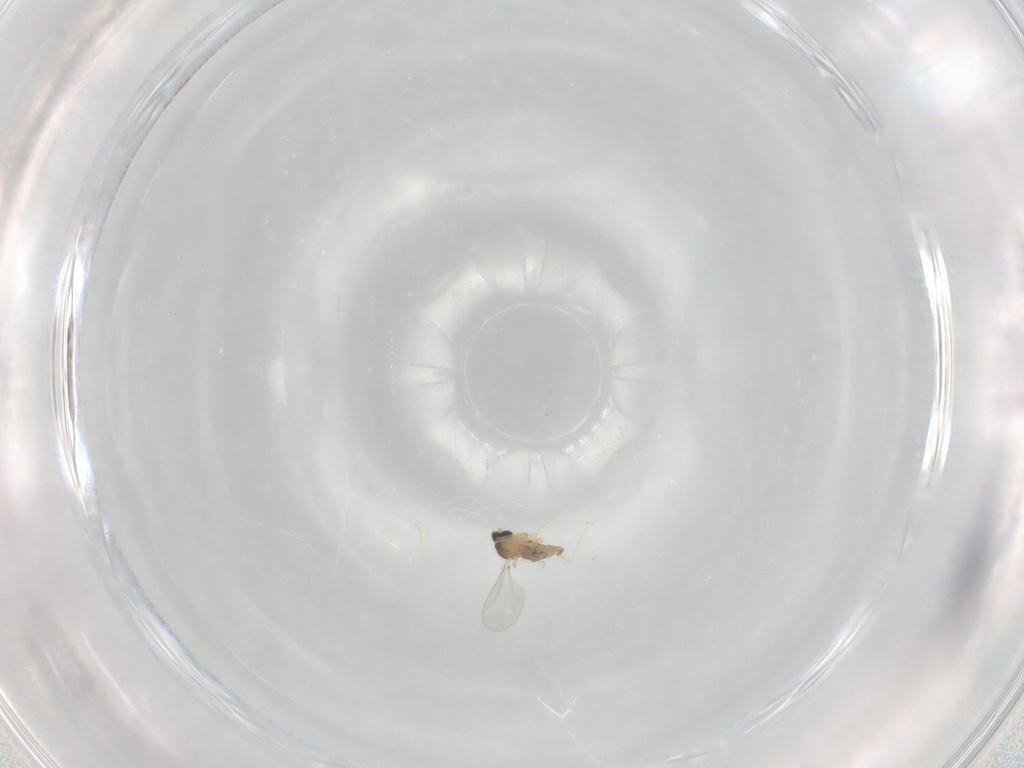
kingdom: Animalia
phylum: Arthropoda
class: Insecta
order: Diptera
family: Cecidomyiidae
